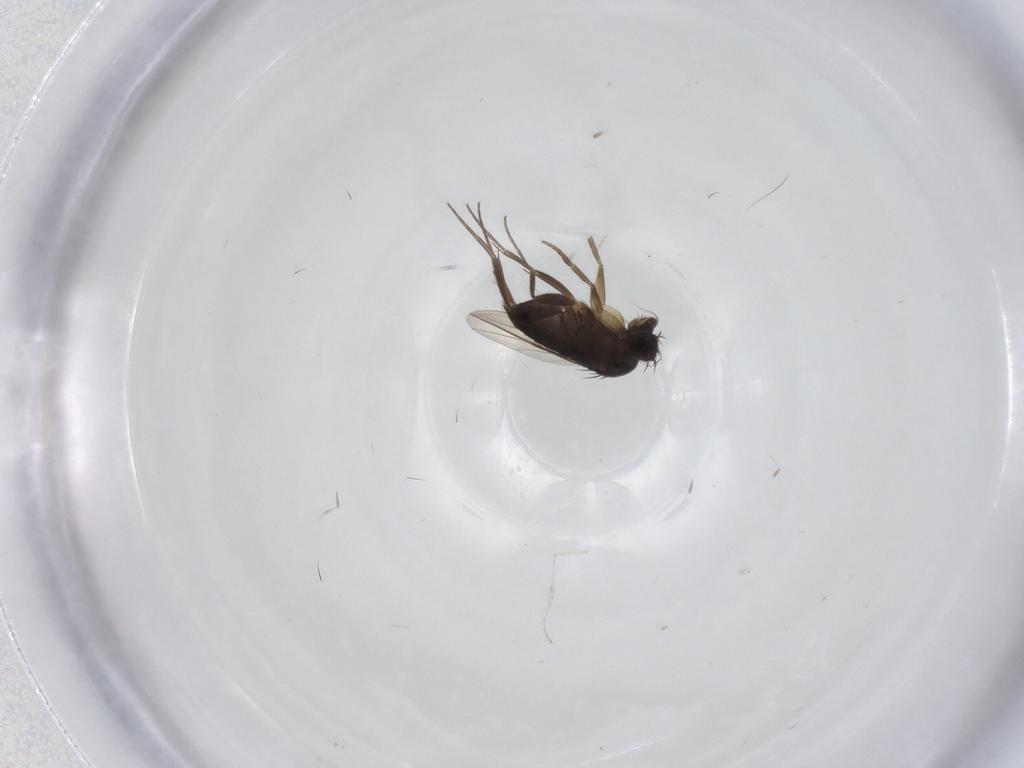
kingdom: Animalia
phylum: Arthropoda
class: Insecta
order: Diptera
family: Phoridae
